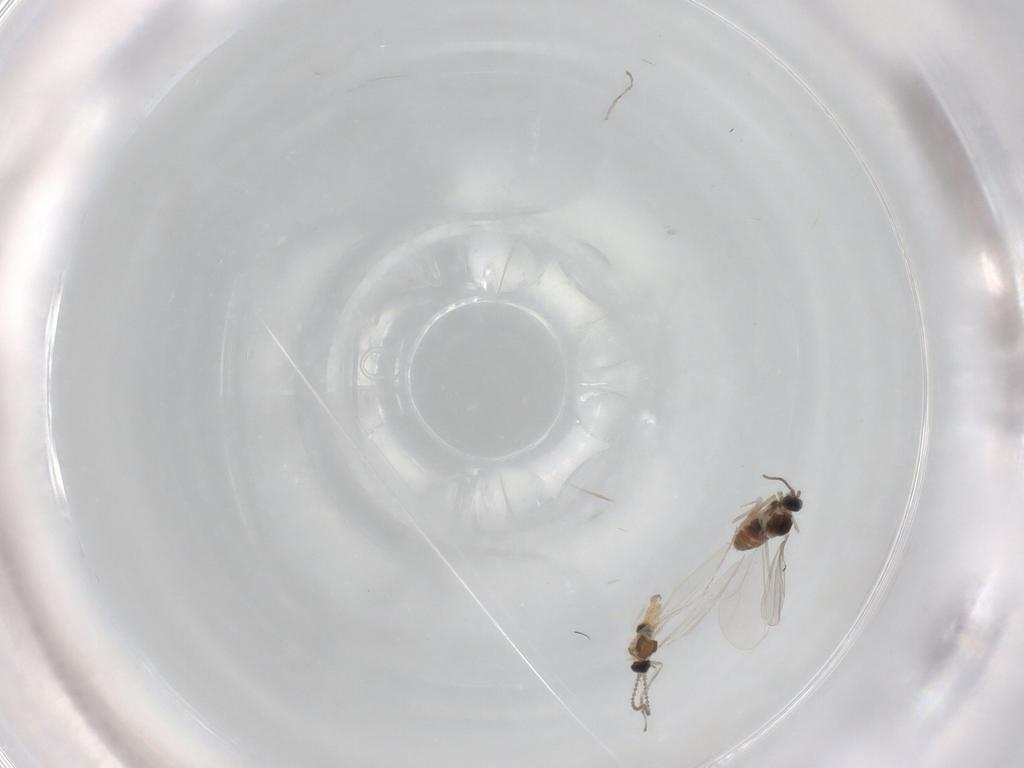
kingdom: Animalia
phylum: Arthropoda
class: Insecta
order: Diptera
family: Cecidomyiidae
